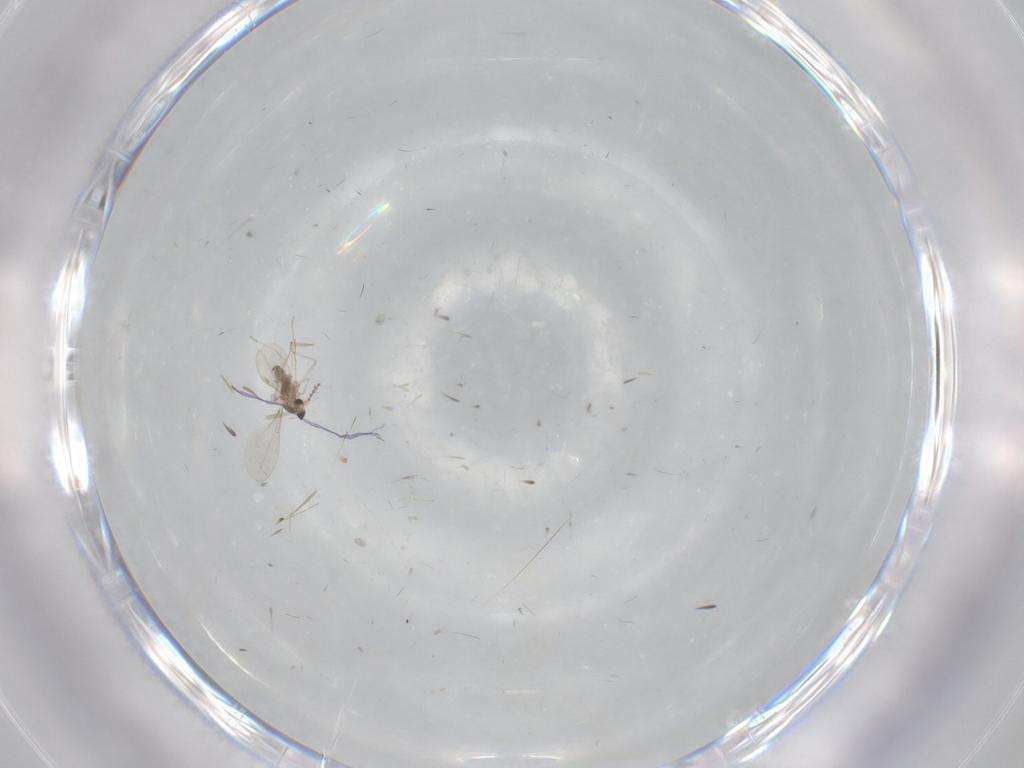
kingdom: Animalia
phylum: Arthropoda
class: Insecta
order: Diptera
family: Cecidomyiidae
